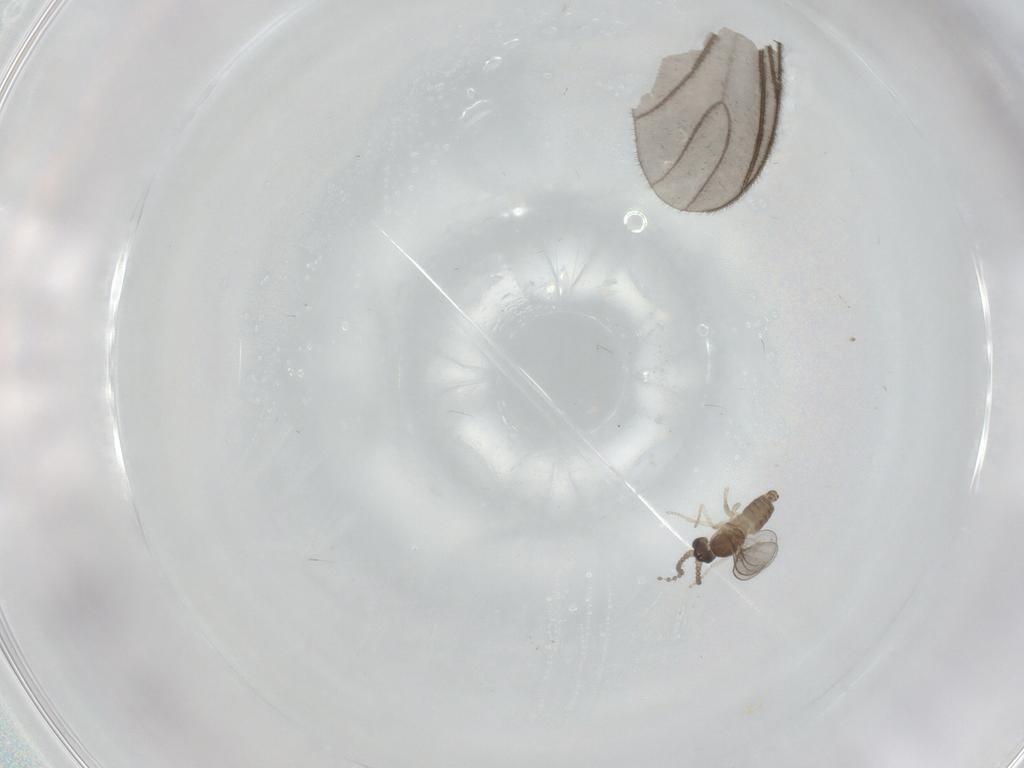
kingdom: Animalia
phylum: Arthropoda
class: Insecta
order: Diptera
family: Cecidomyiidae
